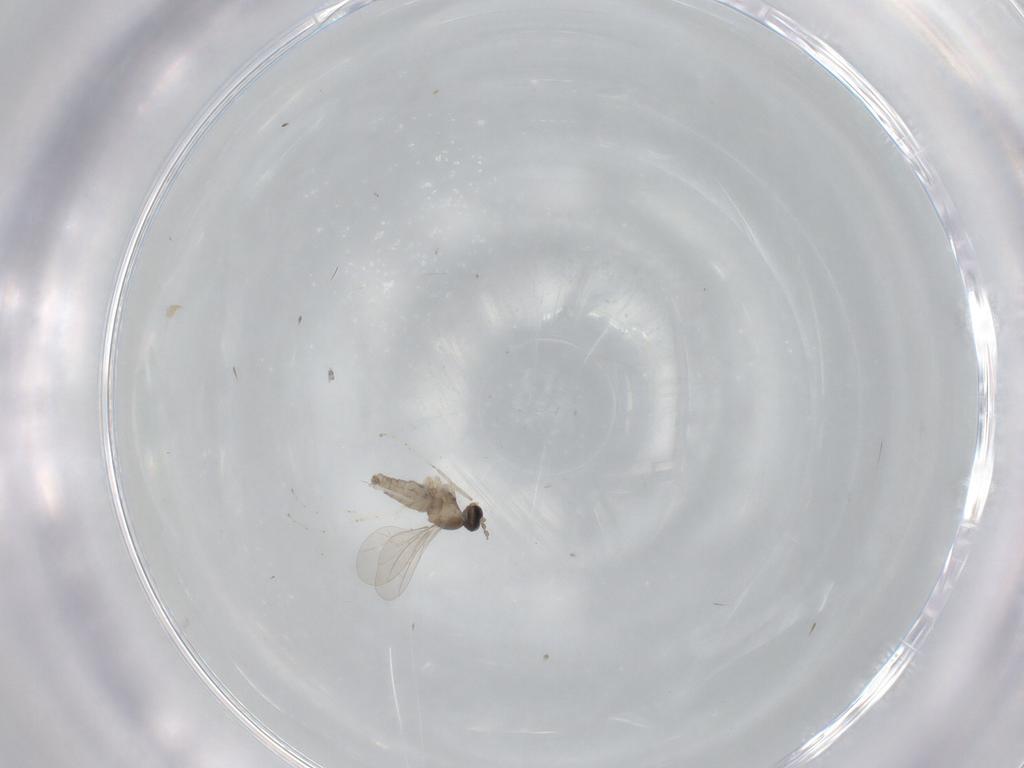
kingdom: Animalia
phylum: Arthropoda
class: Insecta
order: Diptera
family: Cecidomyiidae
